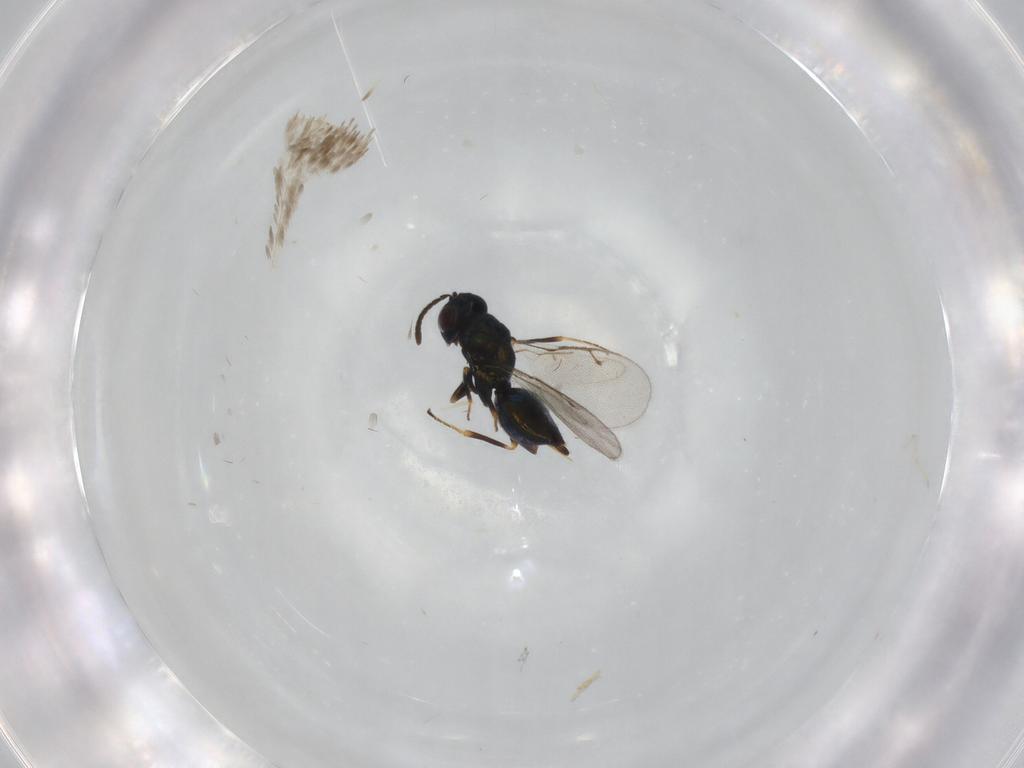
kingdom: Animalia
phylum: Arthropoda
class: Insecta
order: Hymenoptera
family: Pteromalidae
